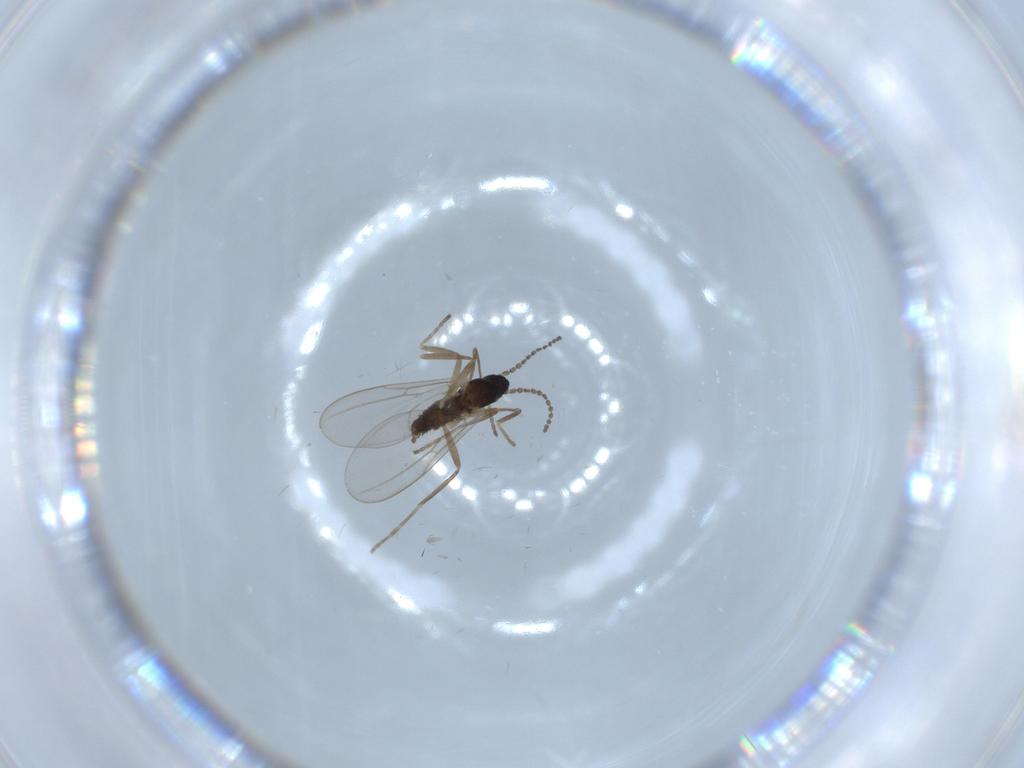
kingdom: Animalia
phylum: Arthropoda
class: Insecta
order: Diptera
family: Cecidomyiidae
